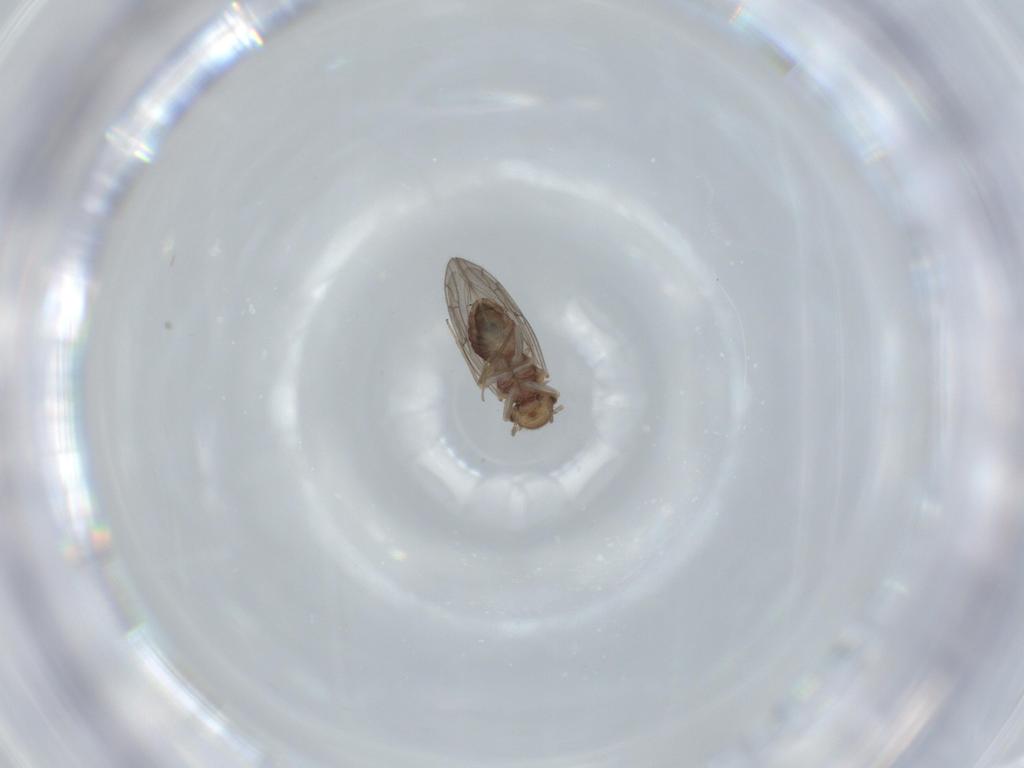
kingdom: Animalia
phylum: Arthropoda
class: Insecta
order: Psocodea
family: Ectopsocidae
